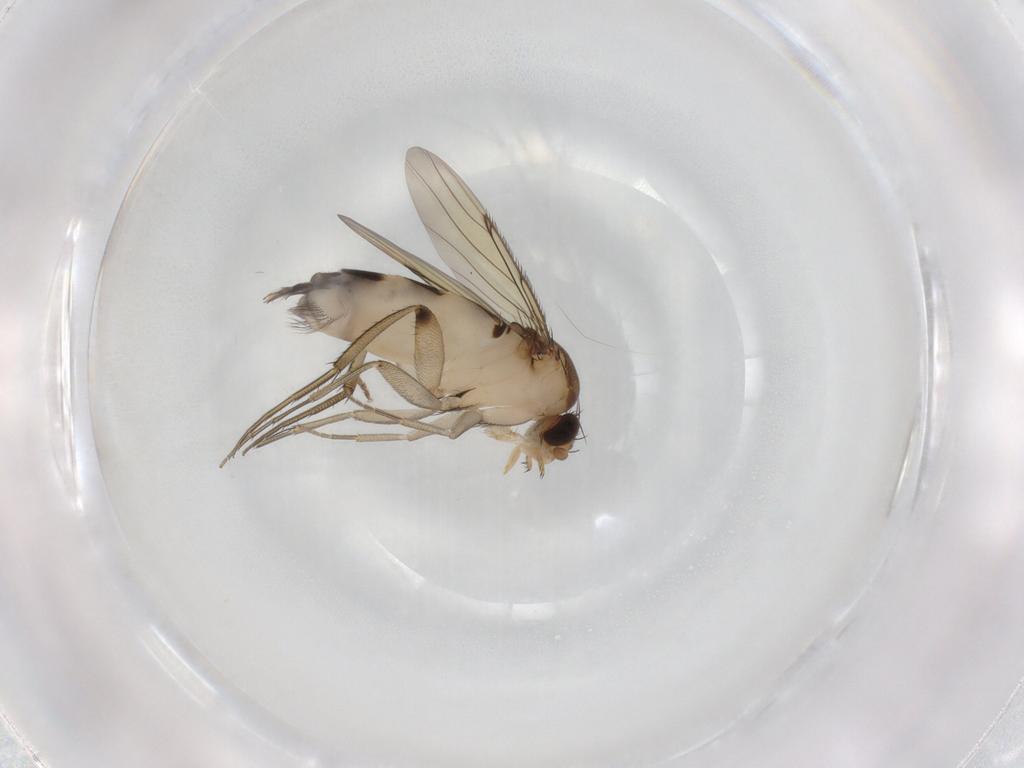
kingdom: Animalia
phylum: Arthropoda
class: Insecta
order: Diptera
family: Phoridae
